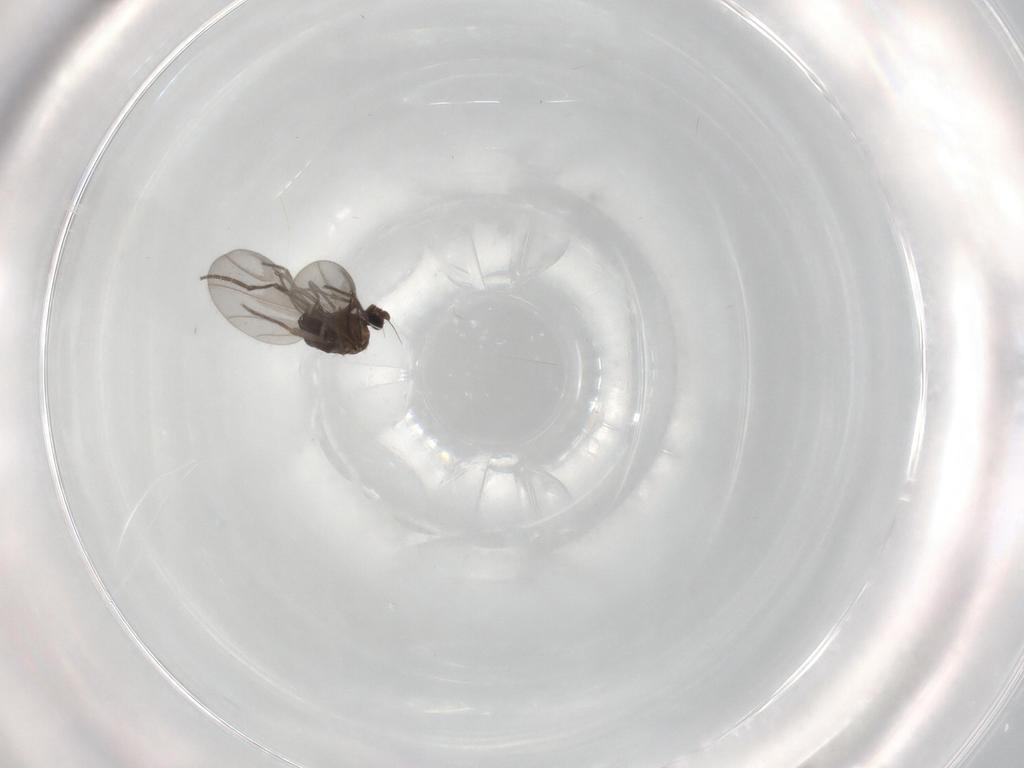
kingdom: Animalia
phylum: Arthropoda
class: Insecta
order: Diptera
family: Phoridae
